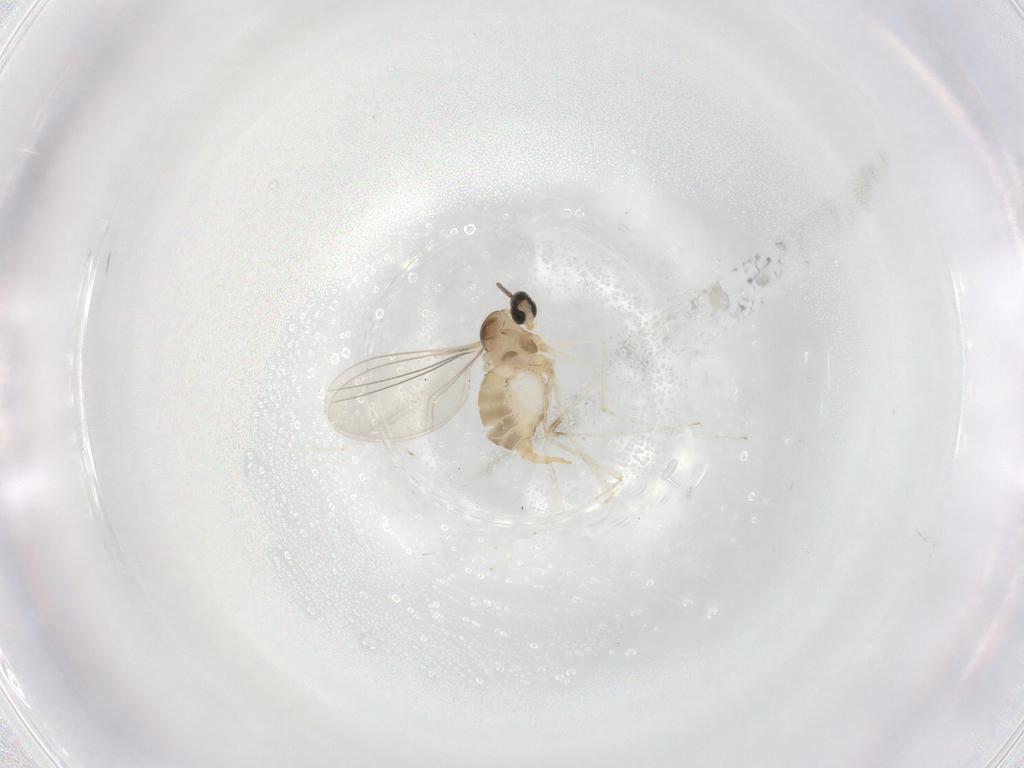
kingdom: Animalia
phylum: Arthropoda
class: Insecta
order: Diptera
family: Cecidomyiidae
